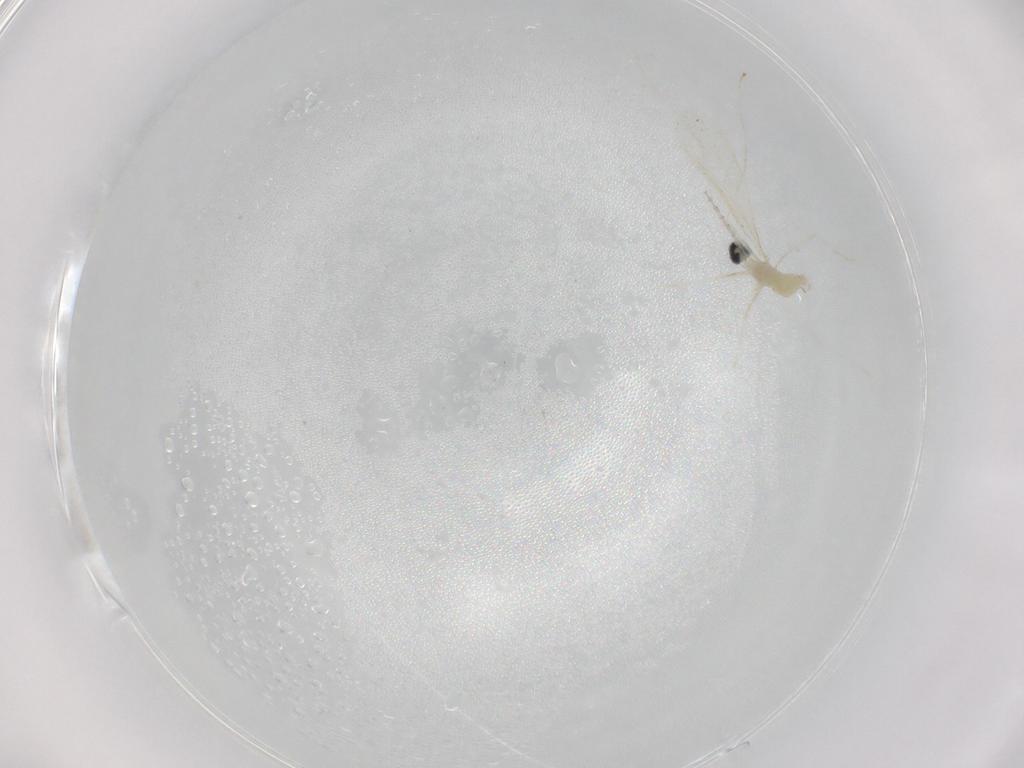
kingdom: Animalia
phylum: Arthropoda
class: Insecta
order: Diptera
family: Cecidomyiidae
